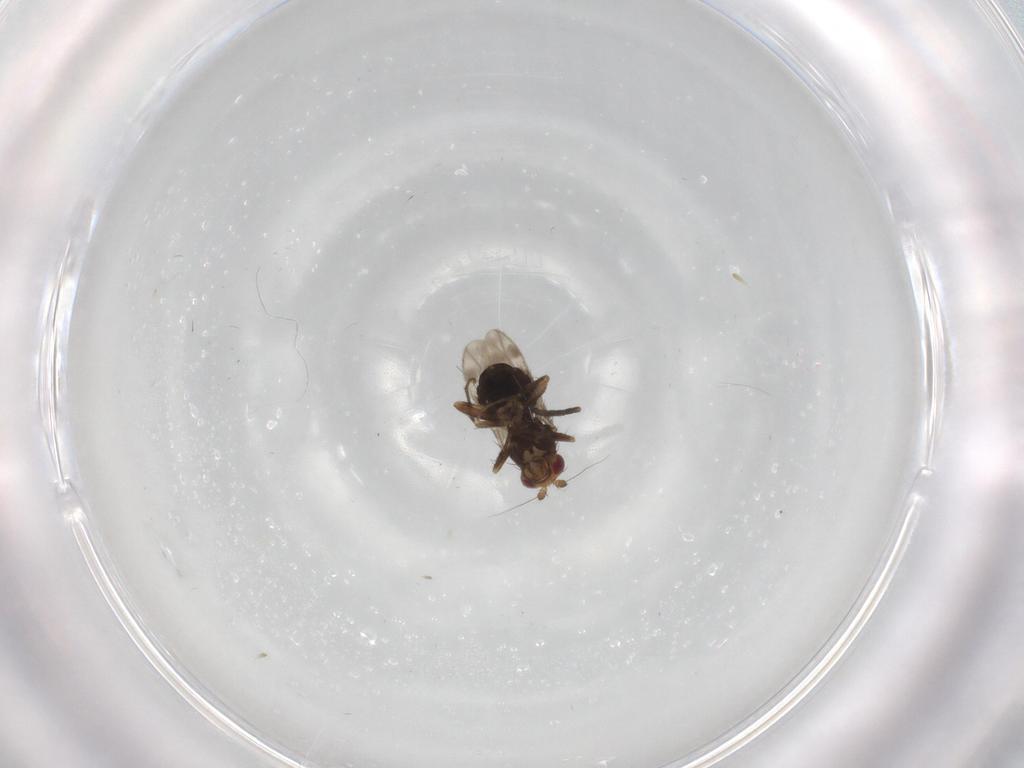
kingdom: Animalia
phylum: Arthropoda
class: Insecta
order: Diptera
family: Sphaeroceridae
